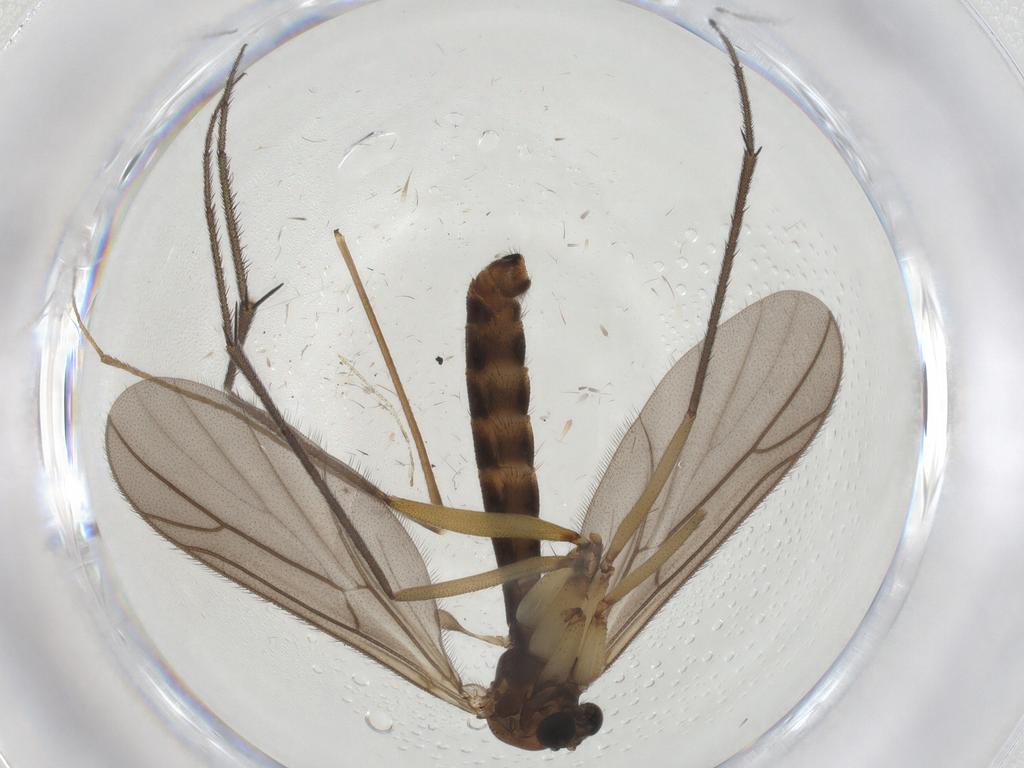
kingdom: Animalia
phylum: Arthropoda
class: Insecta
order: Diptera
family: Ditomyiidae
